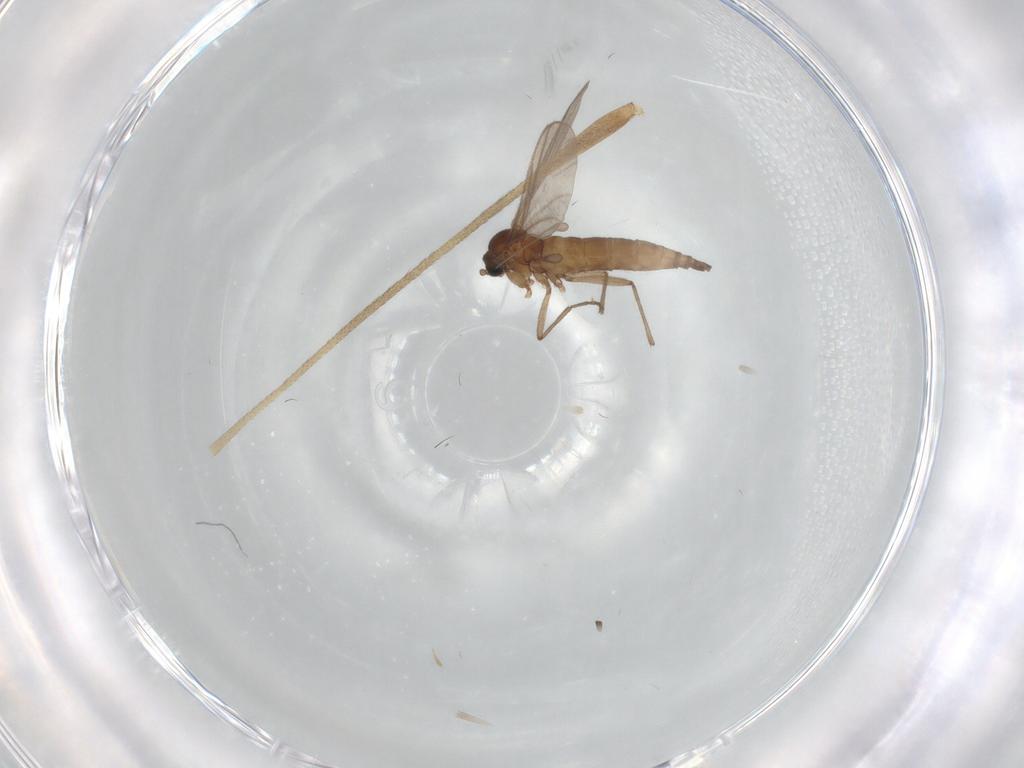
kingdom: Animalia
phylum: Arthropoda
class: Insecta
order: Diptera
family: Sciaridae
